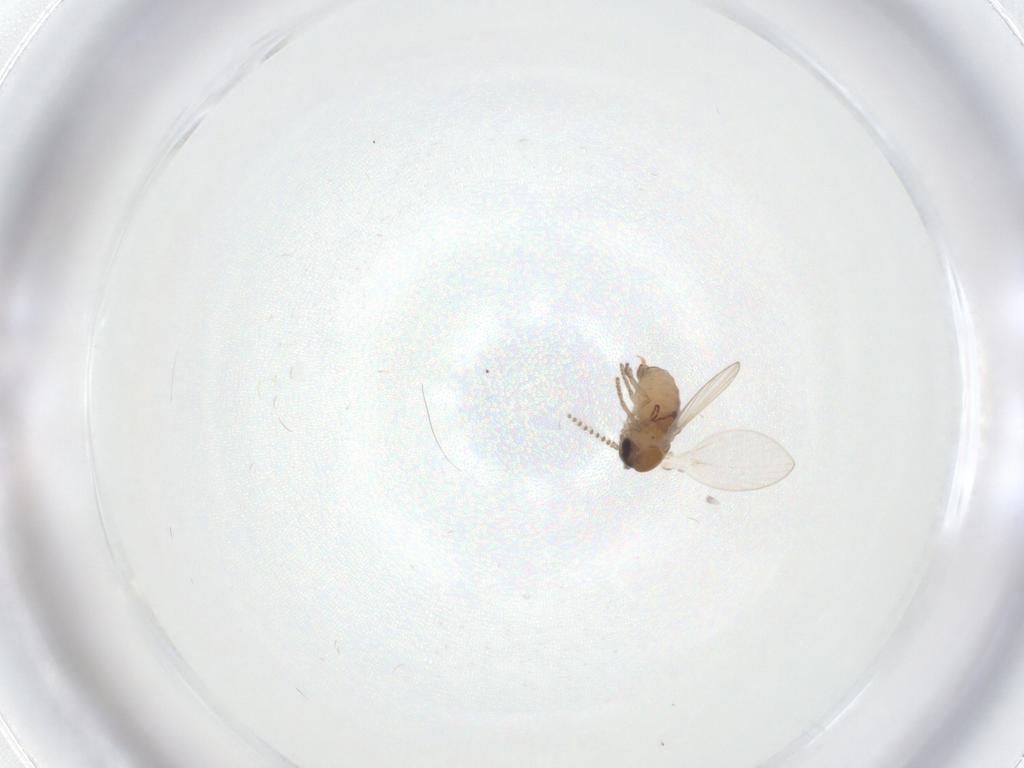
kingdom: Animalia
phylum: Arthropoda
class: Insecta
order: Diptera
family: Psychodidae
